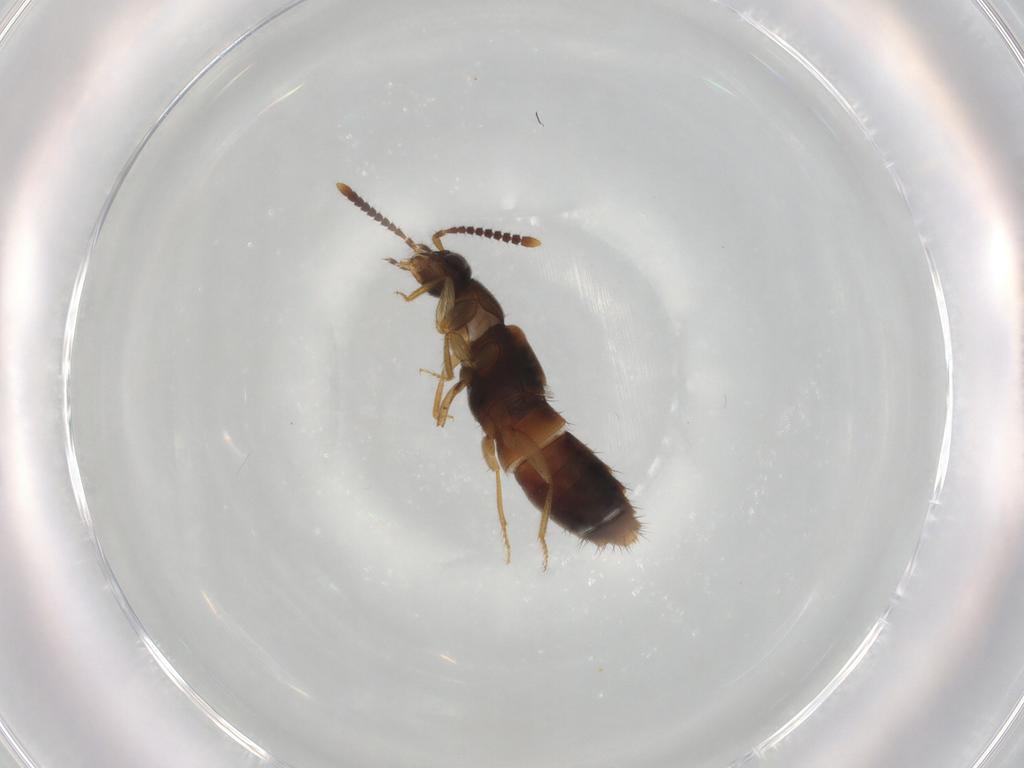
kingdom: Animalia
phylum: Arthropoda
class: Insecta
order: Coleoptera
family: Staphylinidae
